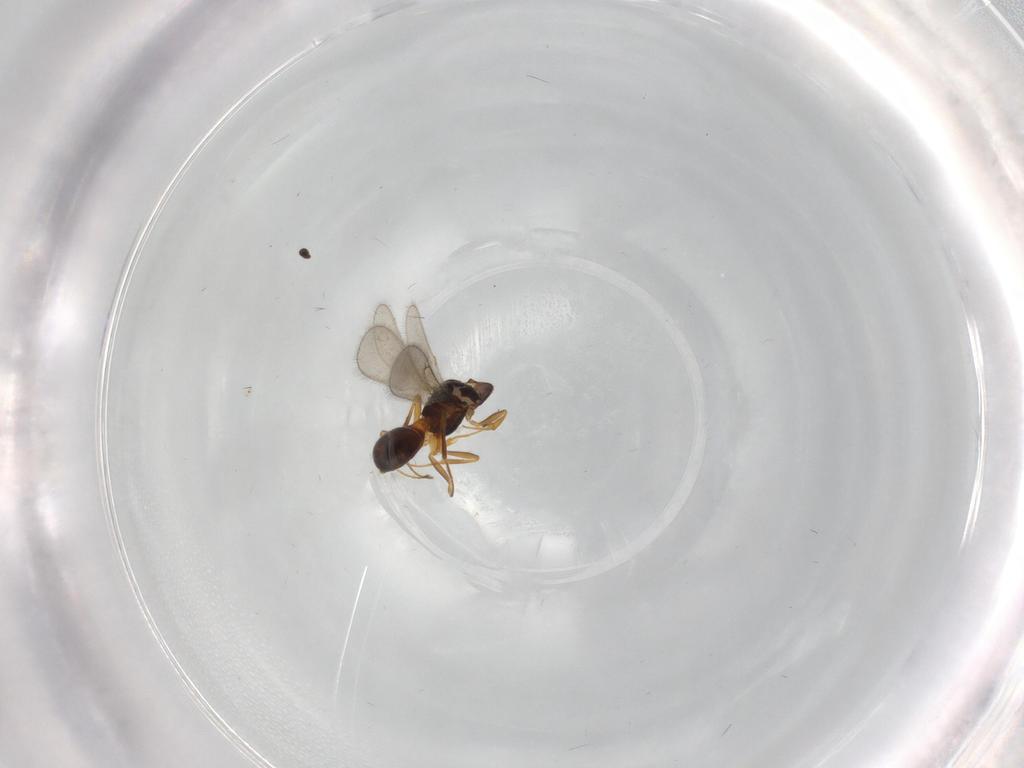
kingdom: Animalia
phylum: Arthropoda
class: Insecta
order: Hymenoptera
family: Scelionidae
